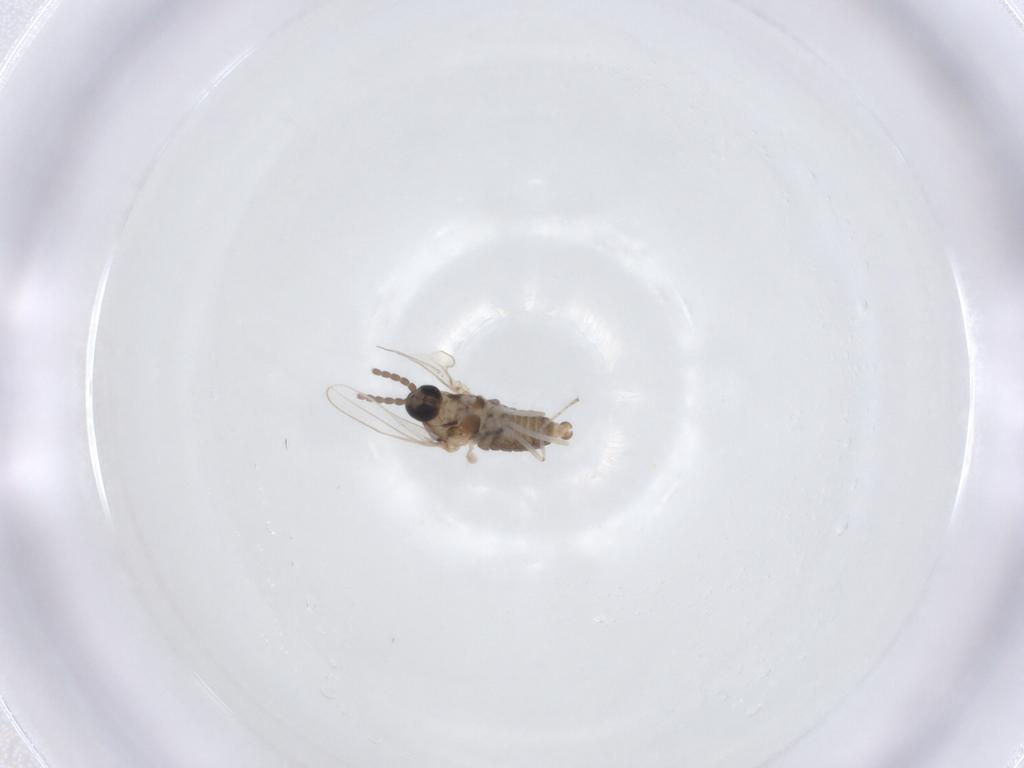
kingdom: Animalia
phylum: Arthropoda
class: Insecta
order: Diptera
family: Cecidomyiidae
